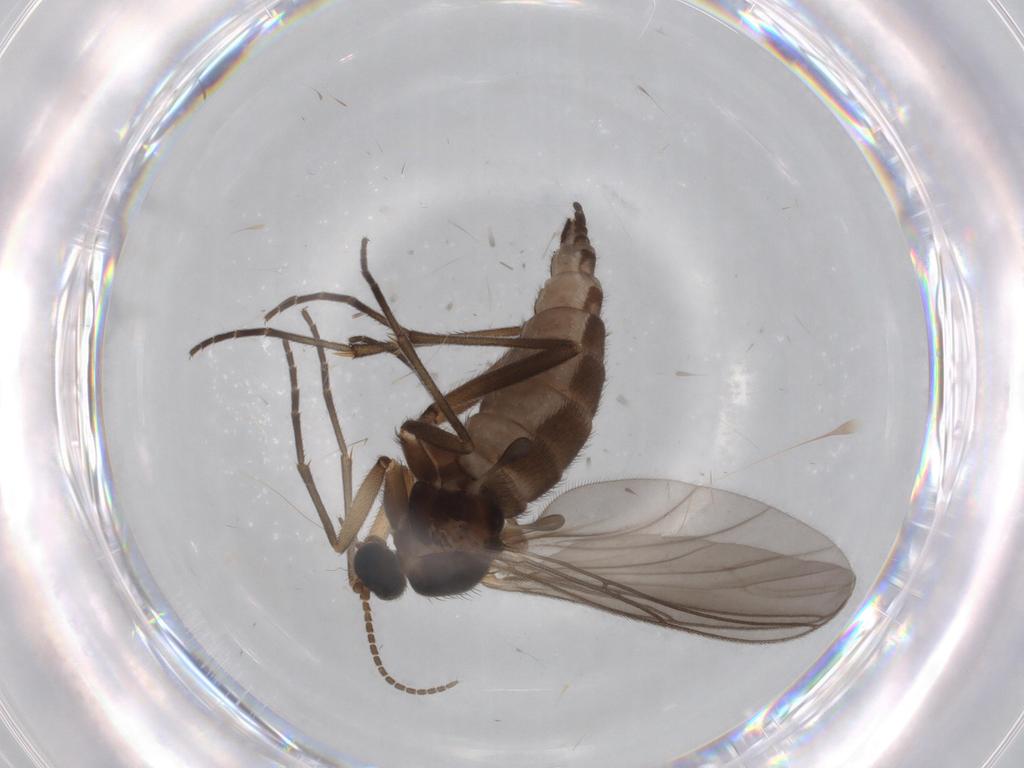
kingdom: Animalia
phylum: Arthropoda
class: Insecta
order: Diptera
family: Sciaridae
